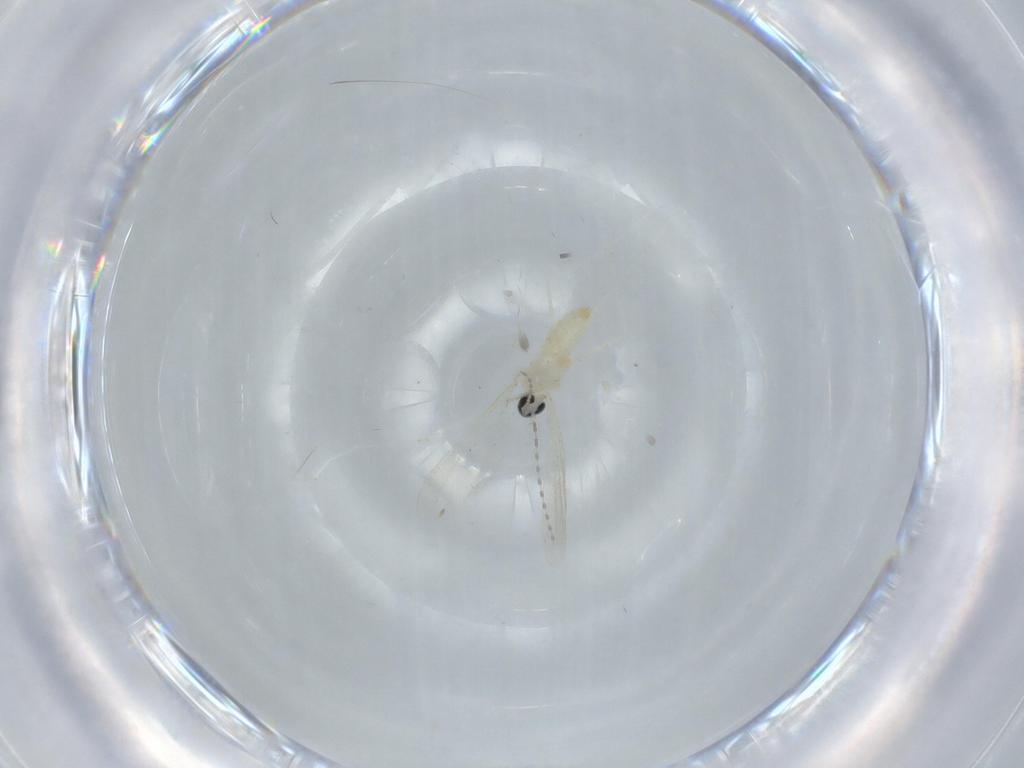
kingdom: Animalia
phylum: Arthropoda
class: Insecta
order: Diptera
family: Cecidomyiidae
